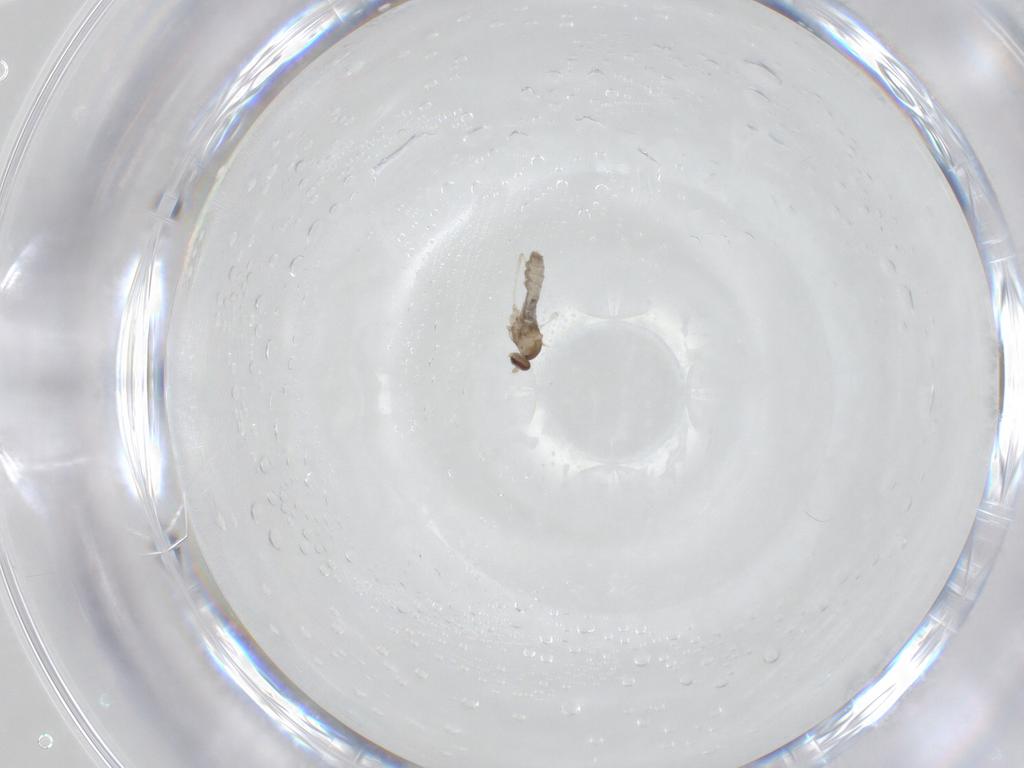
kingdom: Animalia
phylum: Arthropoda
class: Insecta
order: Diptera
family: Cecidomyiidae
